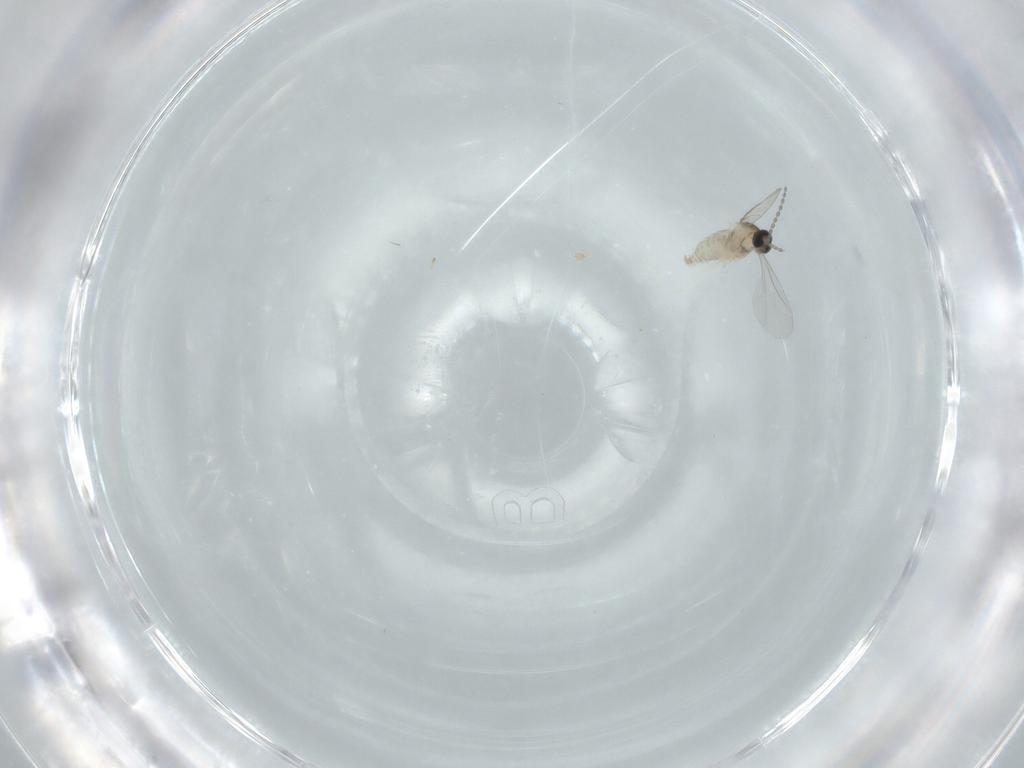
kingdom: Animalia
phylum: Arthropoda
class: Insecta
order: Diptera
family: Cecidomyiidae
